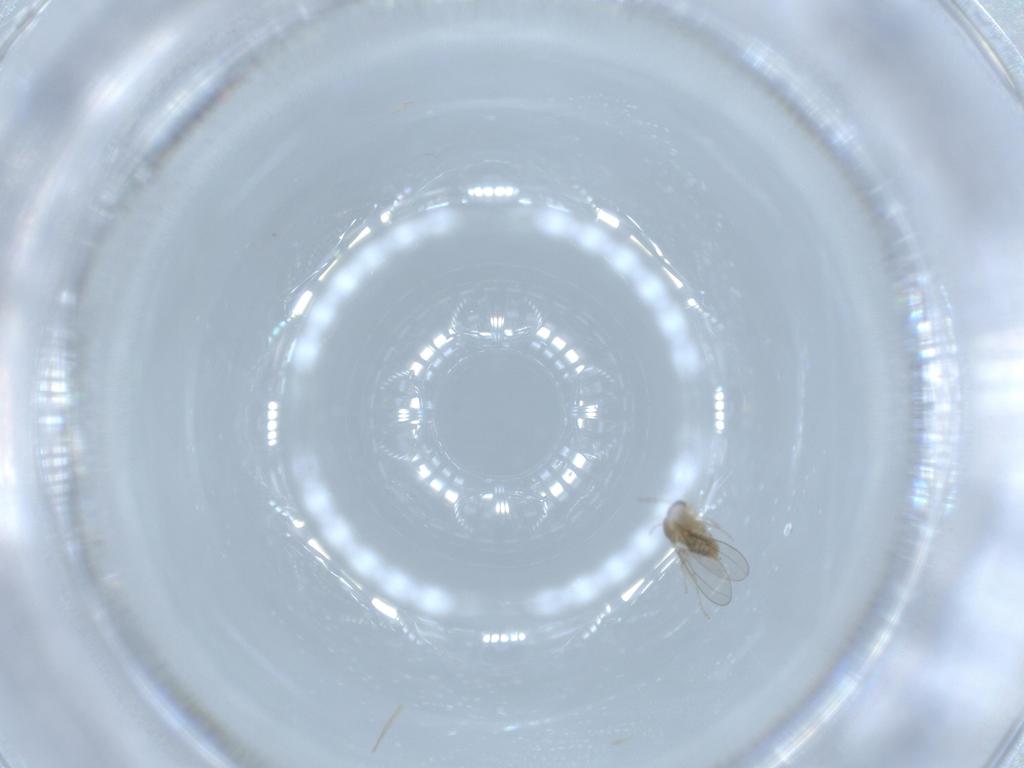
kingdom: Animalia
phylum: Arthropoda
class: Insecta
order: Diptera
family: Cecidomyiidae
